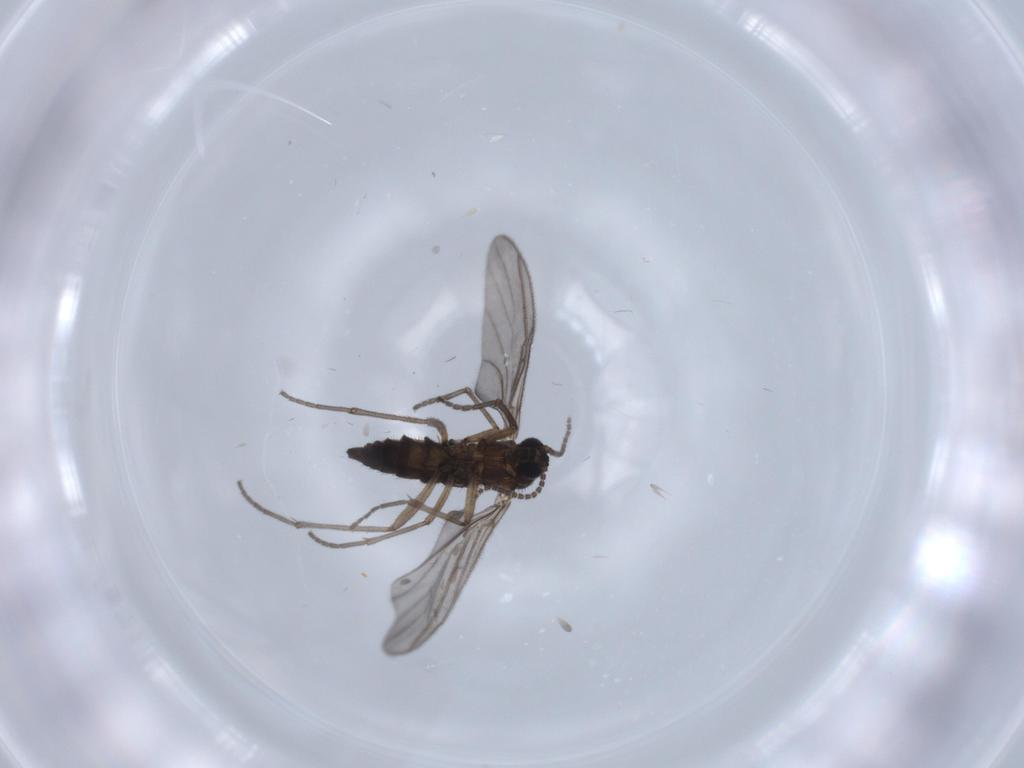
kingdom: Animalia
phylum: Arthropoda
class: Insecta
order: Diptera
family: Sciaridae
